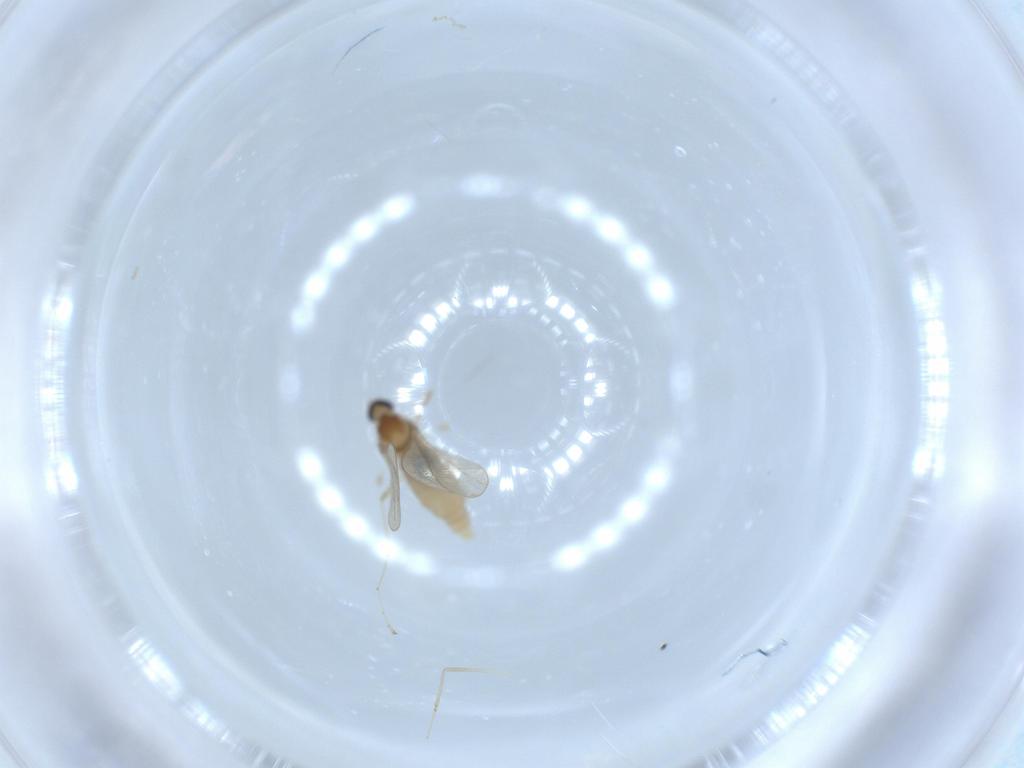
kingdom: Animalia
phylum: Arthropoda
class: Insecta
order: Diptera
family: Cecidomyiidae
